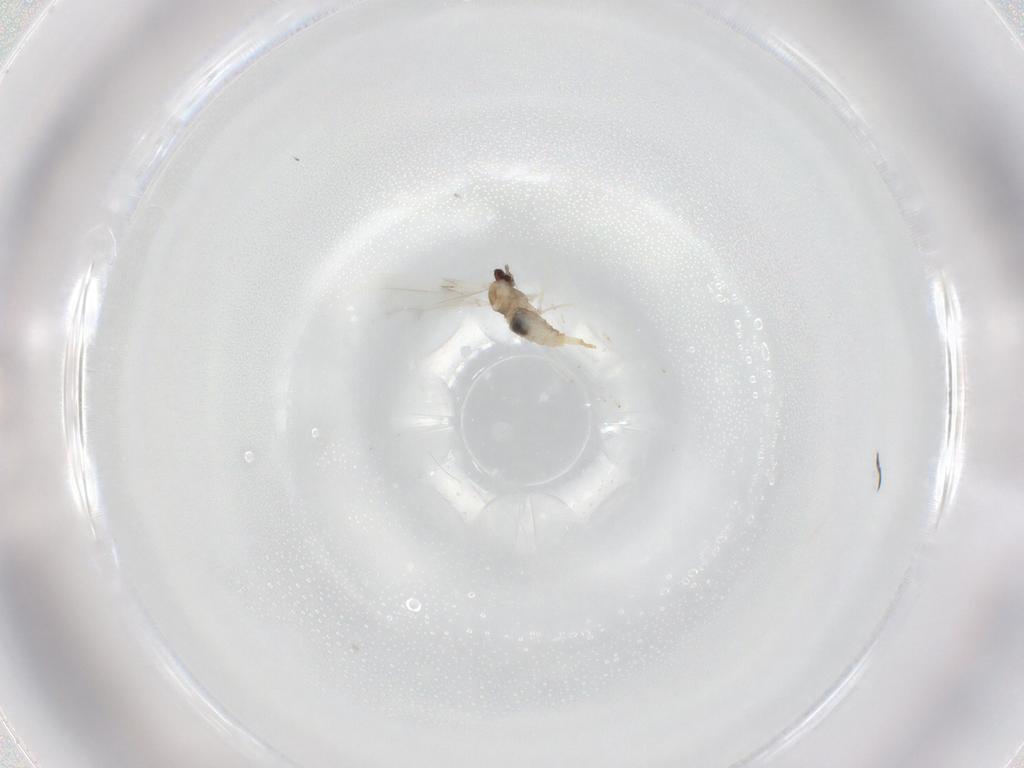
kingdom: Animalia
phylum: Arthropoda
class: Insecta
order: Diptera
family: Cecidomyiidae
